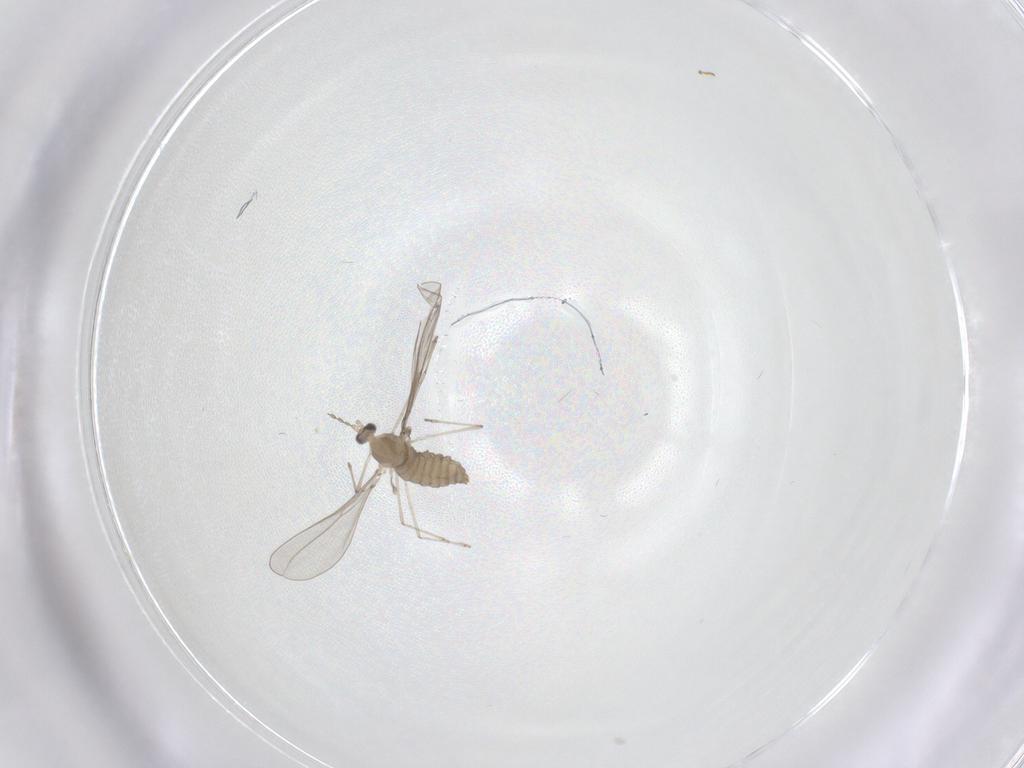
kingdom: Animalia
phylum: Arthropoda
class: Insecta
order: Diptera
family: Cecidomyiidae
